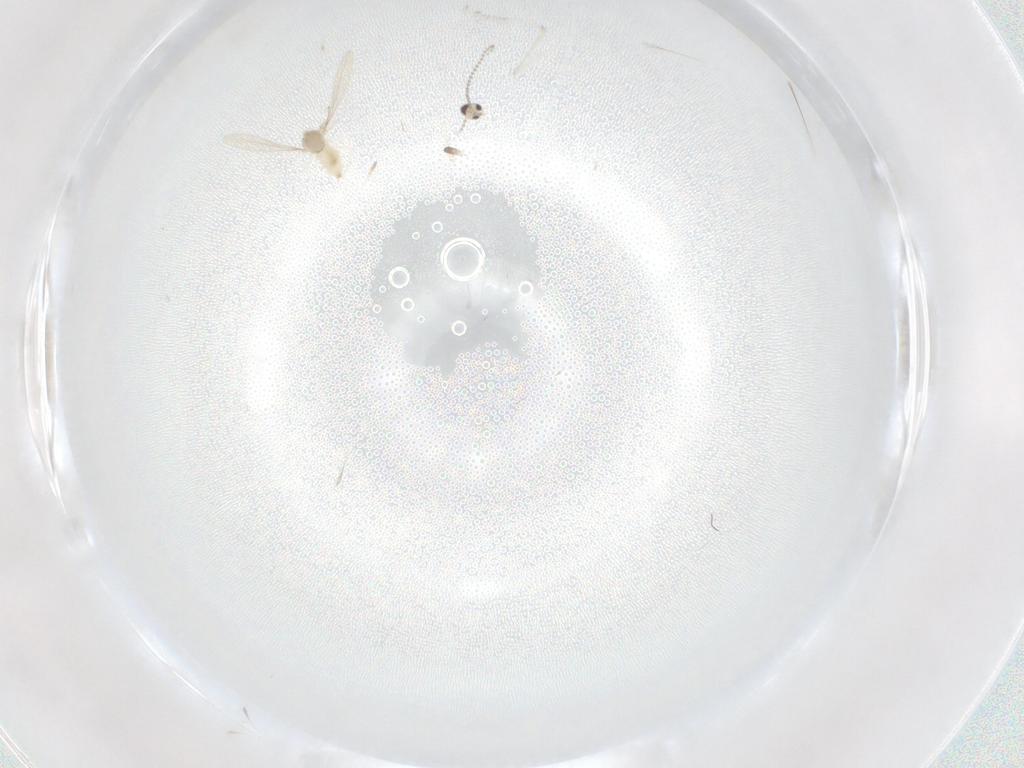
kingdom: Animalia
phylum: Arthropoda
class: Insecta
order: Diptera
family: Cecidomyiidae
